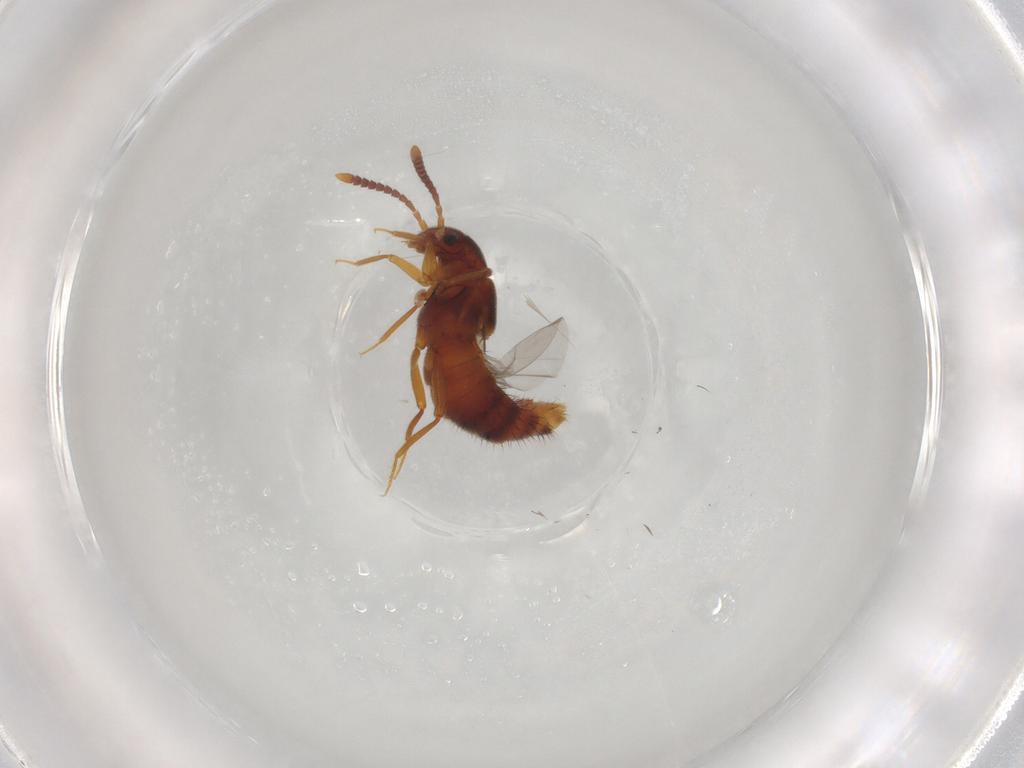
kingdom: Animalia
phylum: Arthropoda
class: Insecta
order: Coleoptera
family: Staphylinidae
